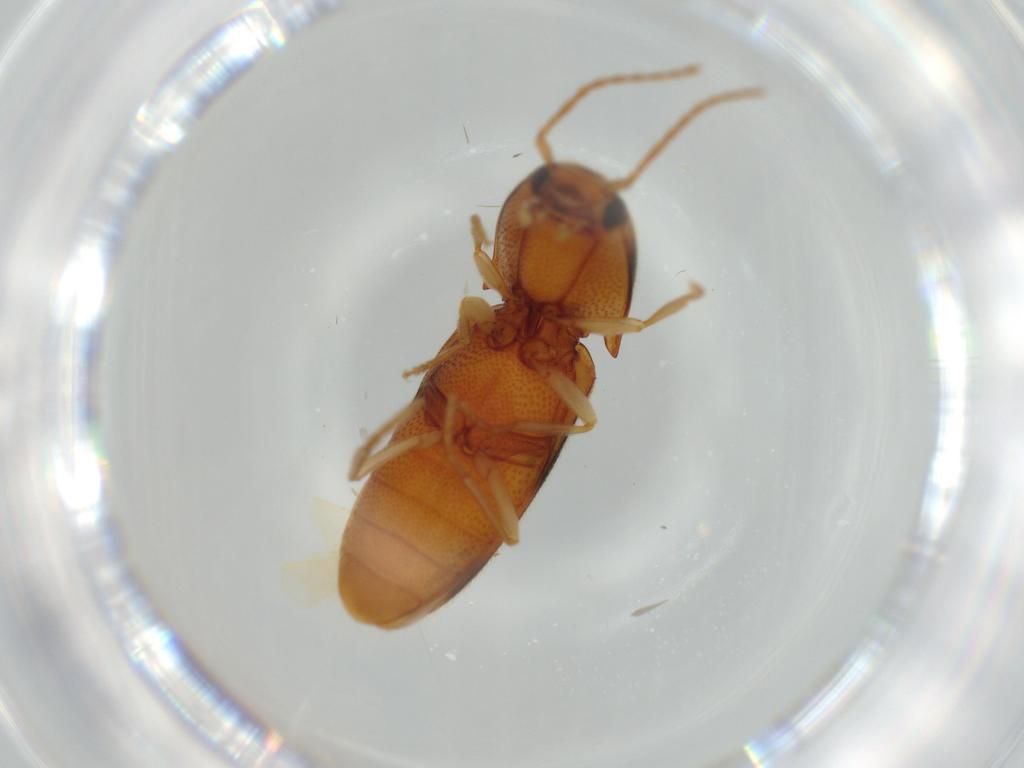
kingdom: Animalia
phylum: Arthropoda
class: Insecta
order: Coleoptera
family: Elateridae
